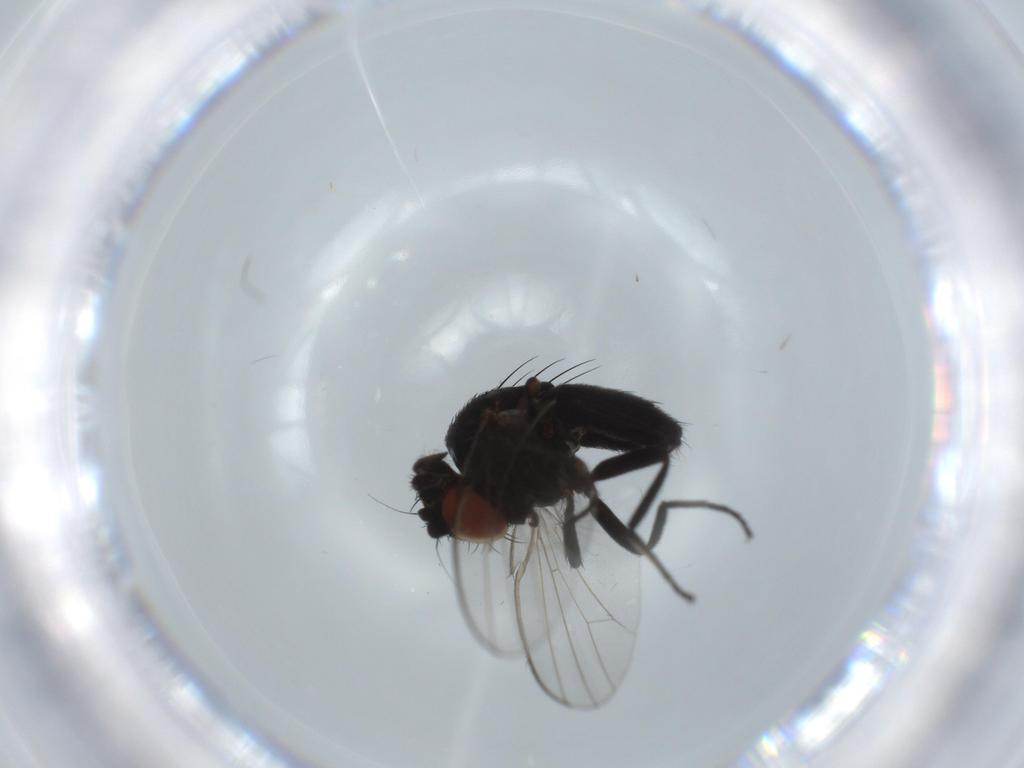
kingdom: Animalia
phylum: Arthropoda
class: Insecta
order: Diptera
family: Milichiidae
